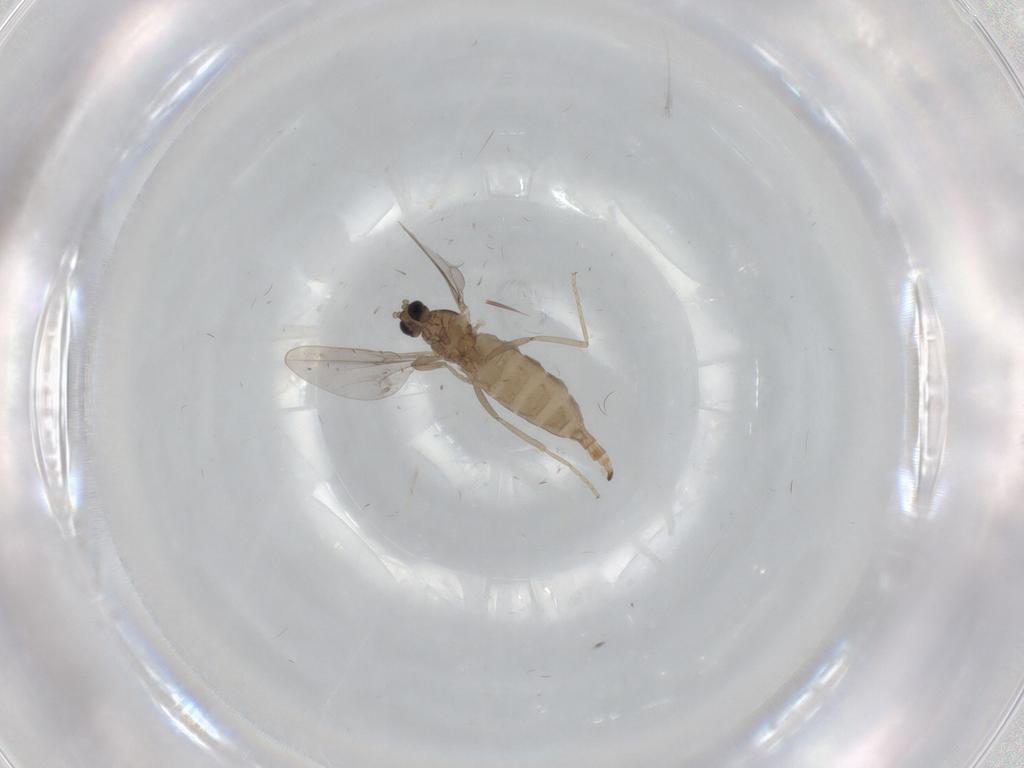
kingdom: Animalia
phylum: Arthropoda
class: Insecta
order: Diptera
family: Cecidomyiidae
